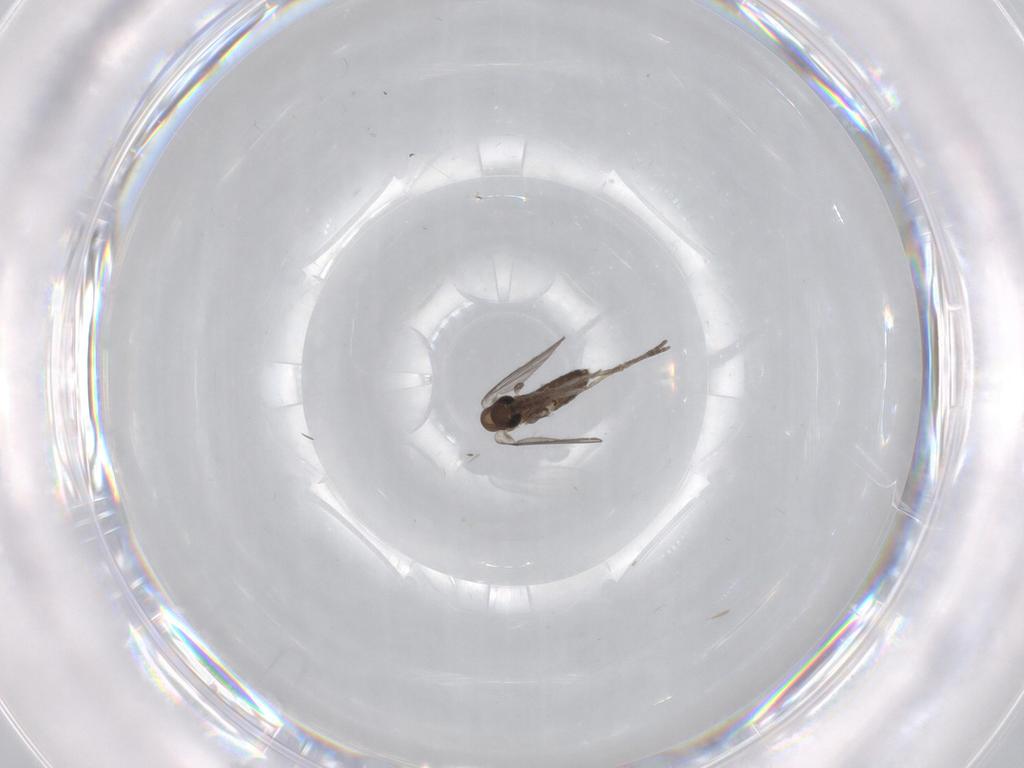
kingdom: Animalia
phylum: Arthropoda
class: Insecta
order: Diptera
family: Psychodidae
